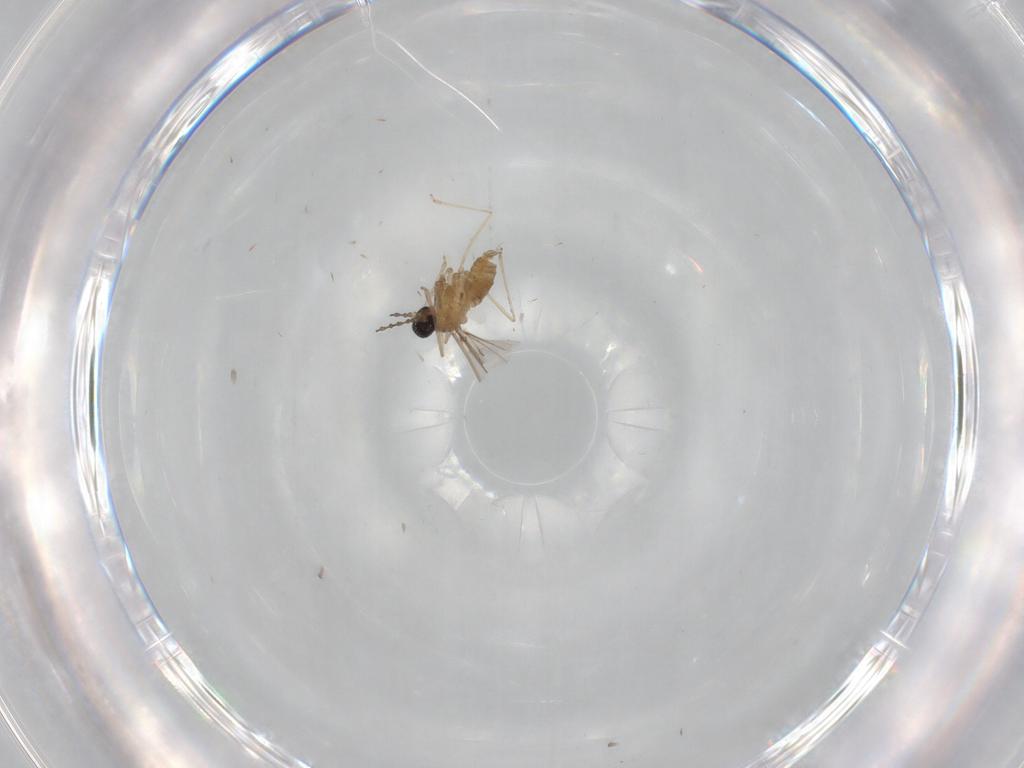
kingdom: Animalia
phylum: Arthropoda
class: Insecta
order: Diptera
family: Cecidomyiidae
